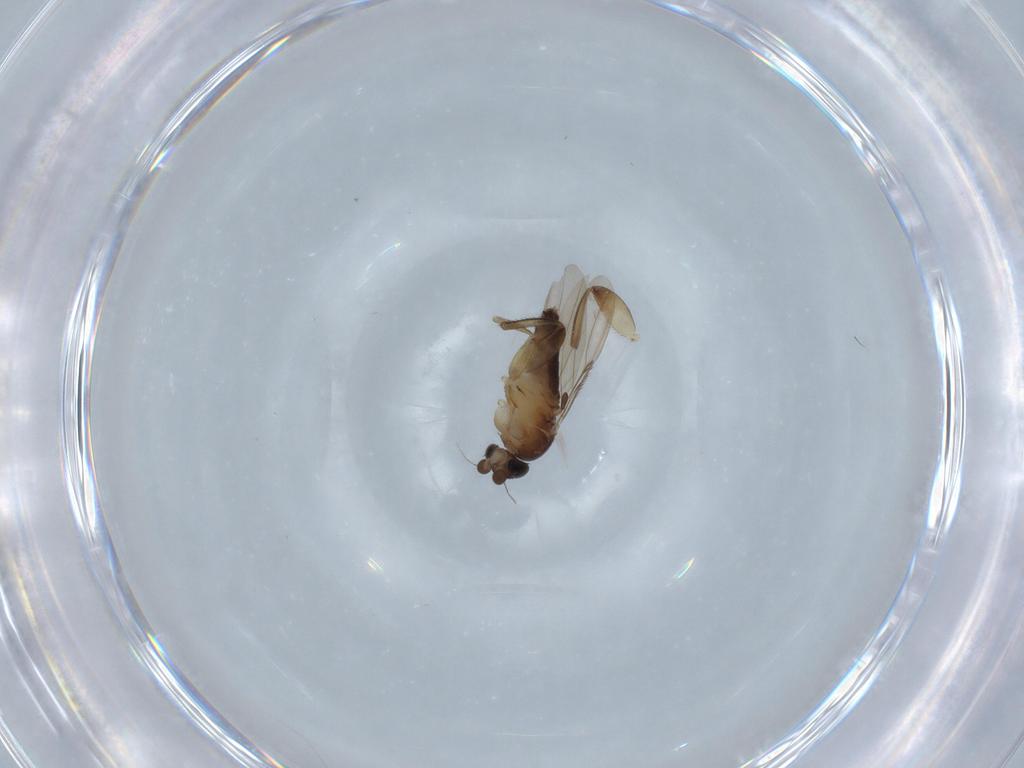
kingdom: Animalia
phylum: Arthropoda
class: Insecta
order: Diptera
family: Phoridae
